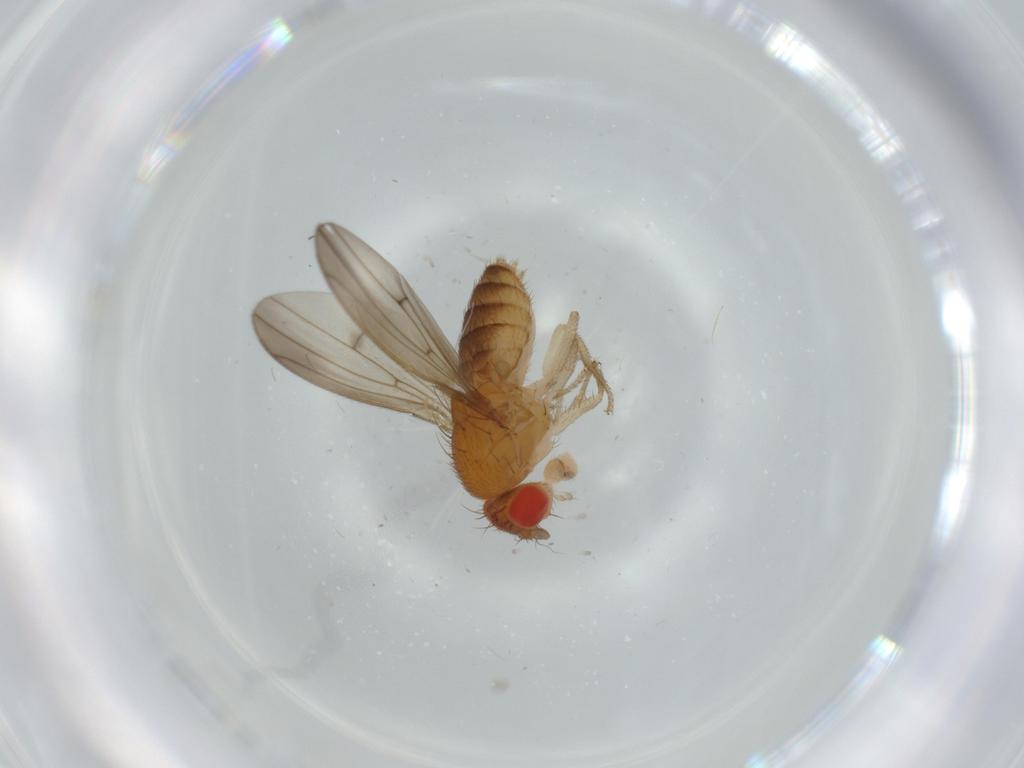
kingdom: Animalia
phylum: Arthropoda
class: Insecta
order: Diptera
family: Drosophilidae
